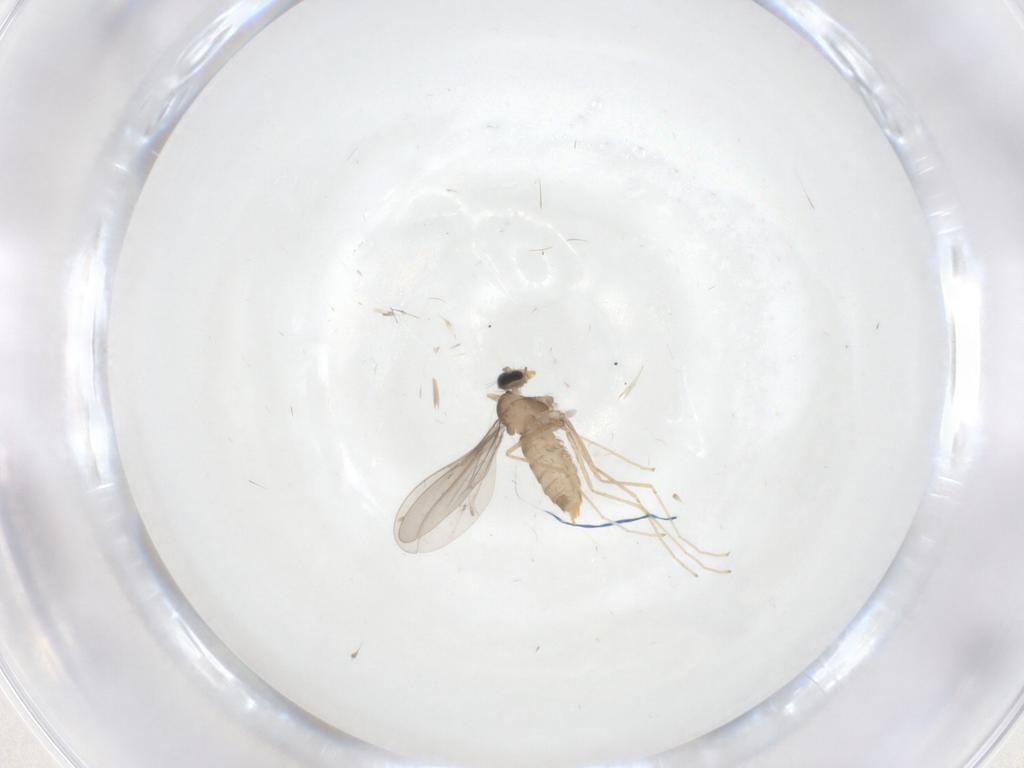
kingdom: Animalia
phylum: Arthropoda
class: Insecta
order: Diptera
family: Cecidomyiidae
